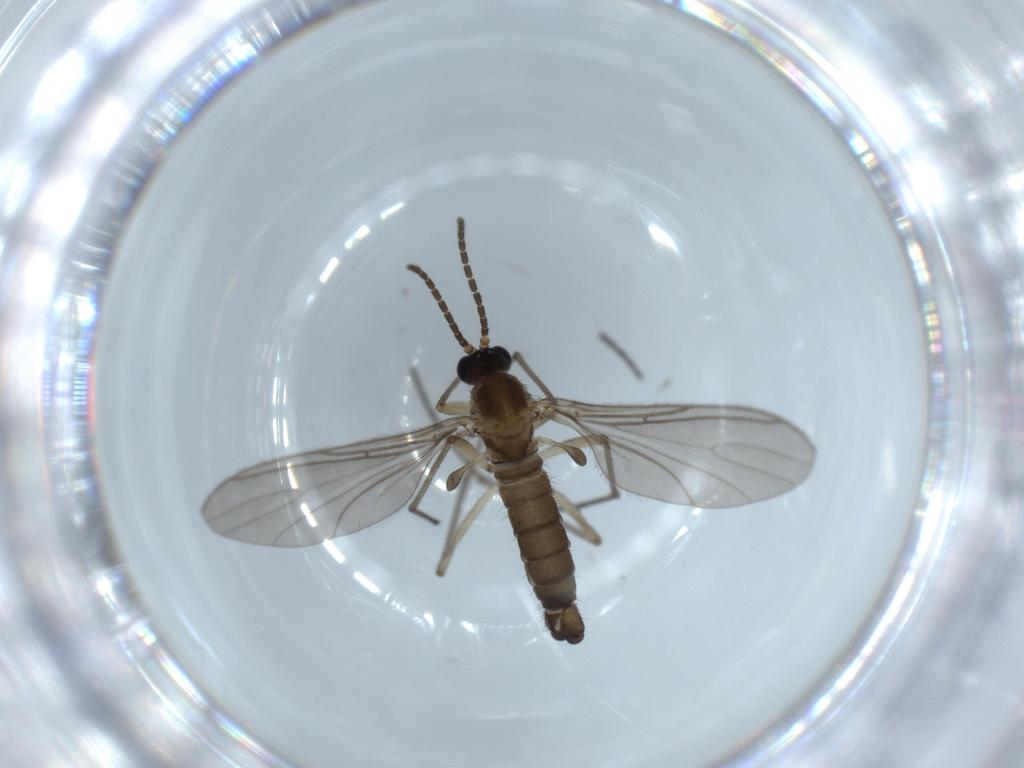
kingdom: Animalia
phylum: Arthropoda
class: Insecta
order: Diptera
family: Sciaridae
